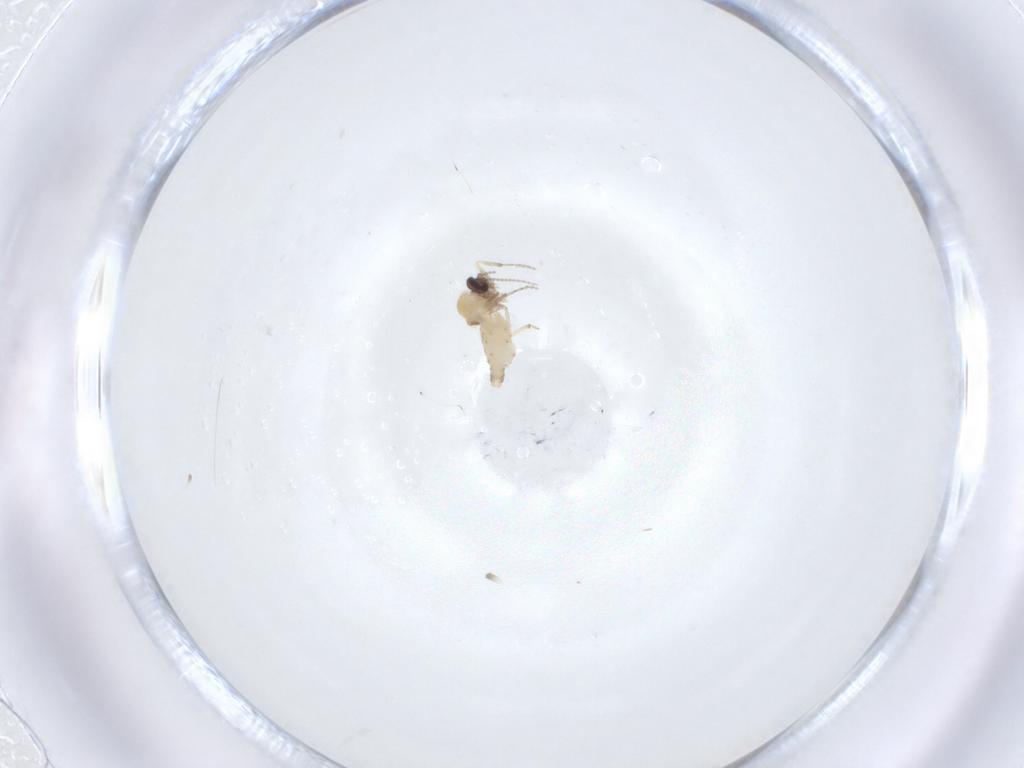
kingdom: Animalia
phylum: Arthropoda
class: Insecta
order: Diptera
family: Ceratopogonidae
